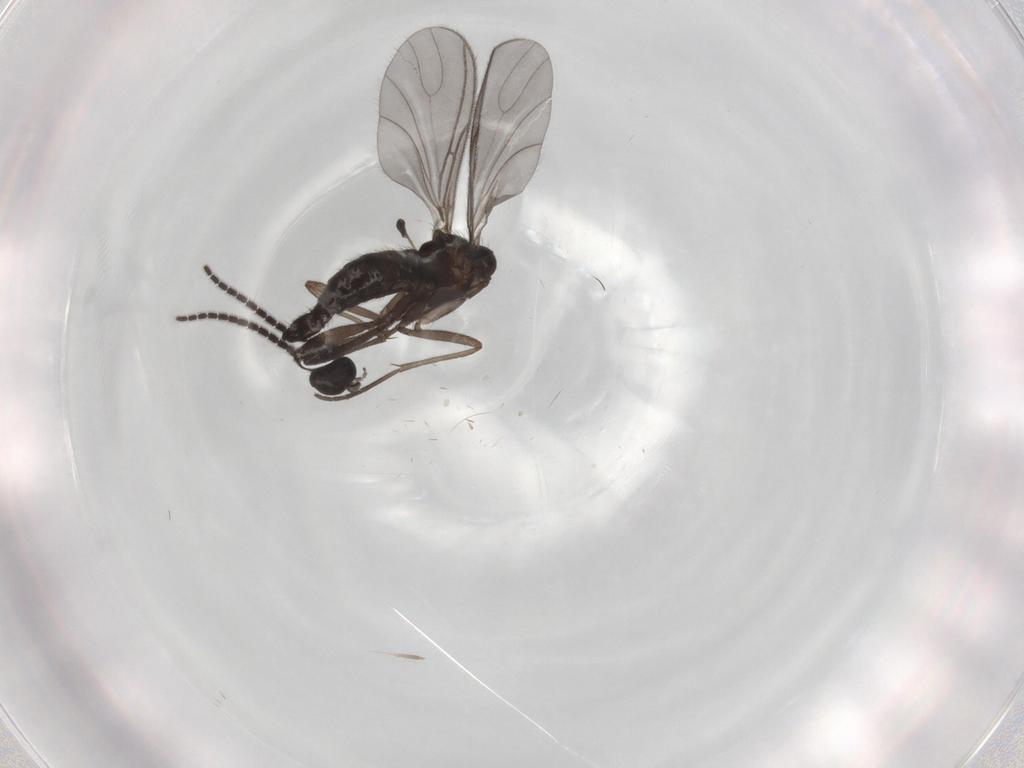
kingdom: Animalia
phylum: Arthropoda
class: Insecta
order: Diptera
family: Sciaridae
